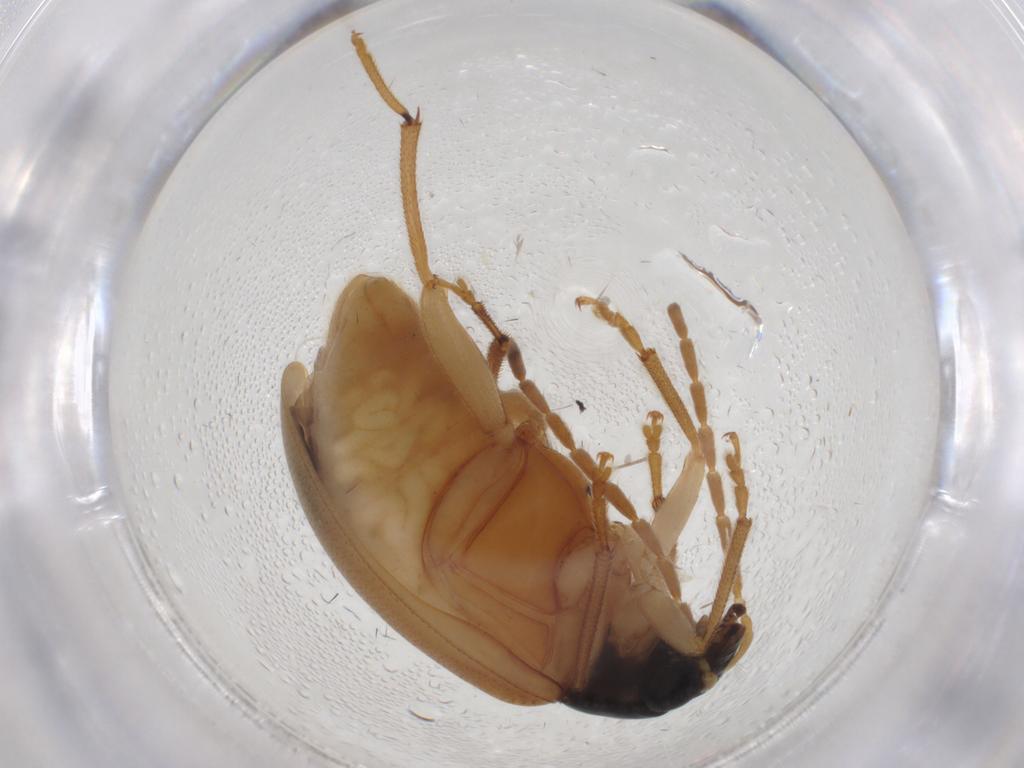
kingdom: Animalia
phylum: Arthropoda
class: Insecta
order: Coleoptera
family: Chrysomelidae
